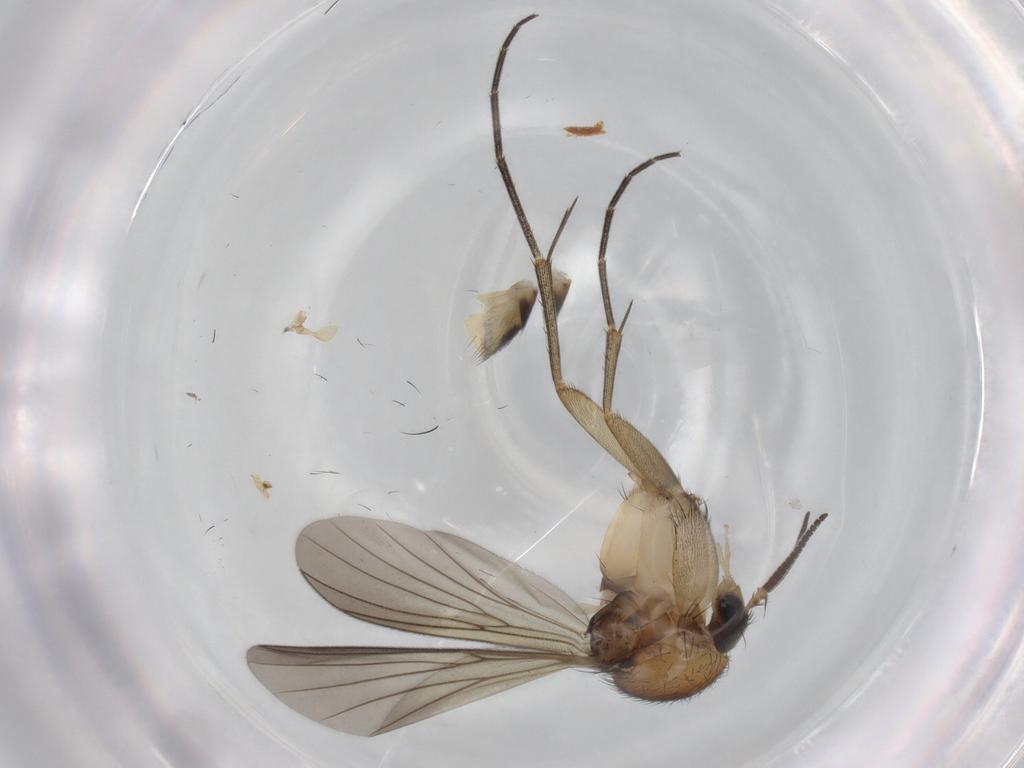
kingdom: Animalia
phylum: Arthropoda
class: Insecta
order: Diptera
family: Mycetophilidae
